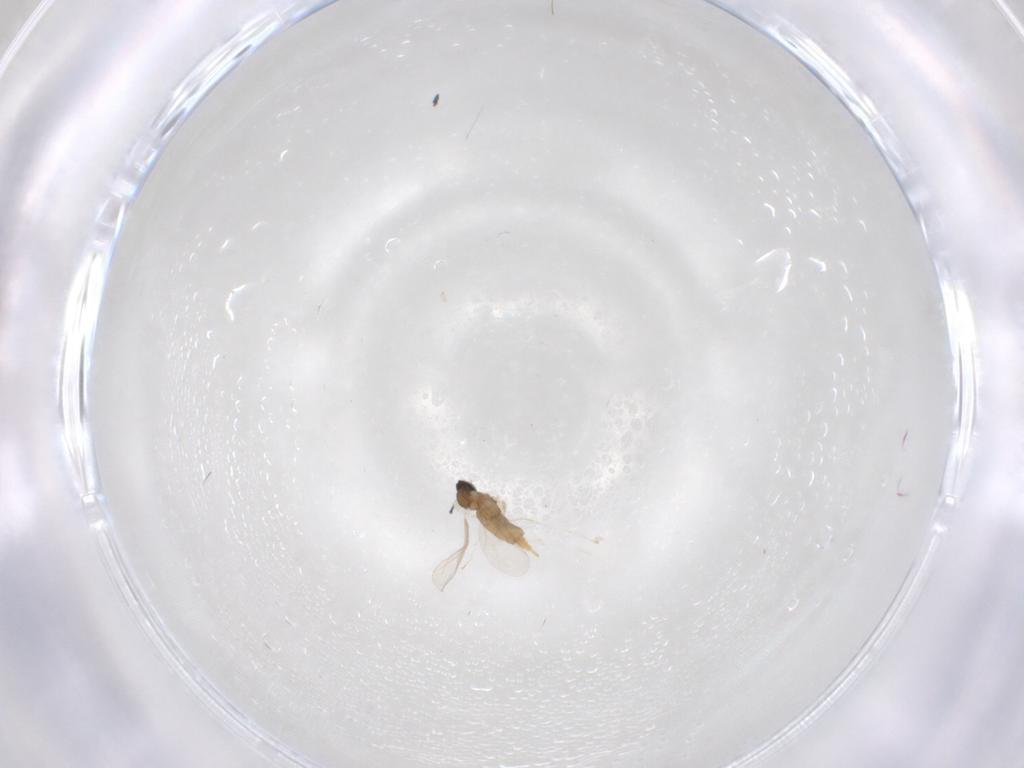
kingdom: Animalia
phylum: Arthropoda
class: Insecta
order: Diptera
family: Cecidomyiidae
